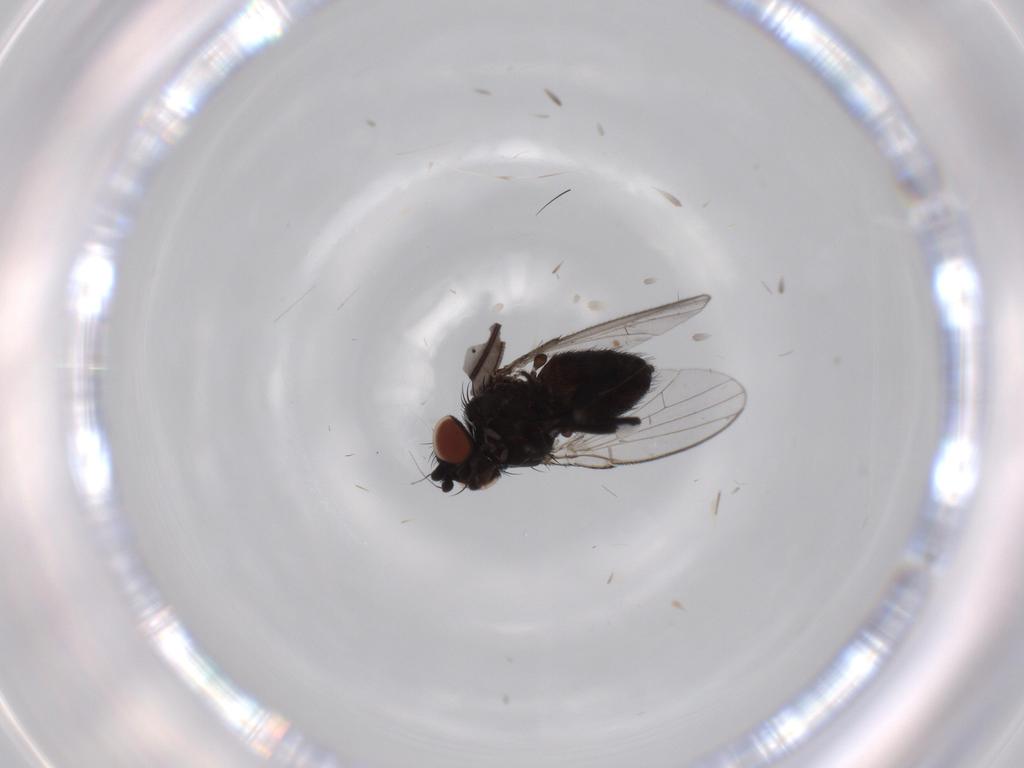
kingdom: Animalia
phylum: Arthropoda
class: Insecta
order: Diptera
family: Milichiidae
